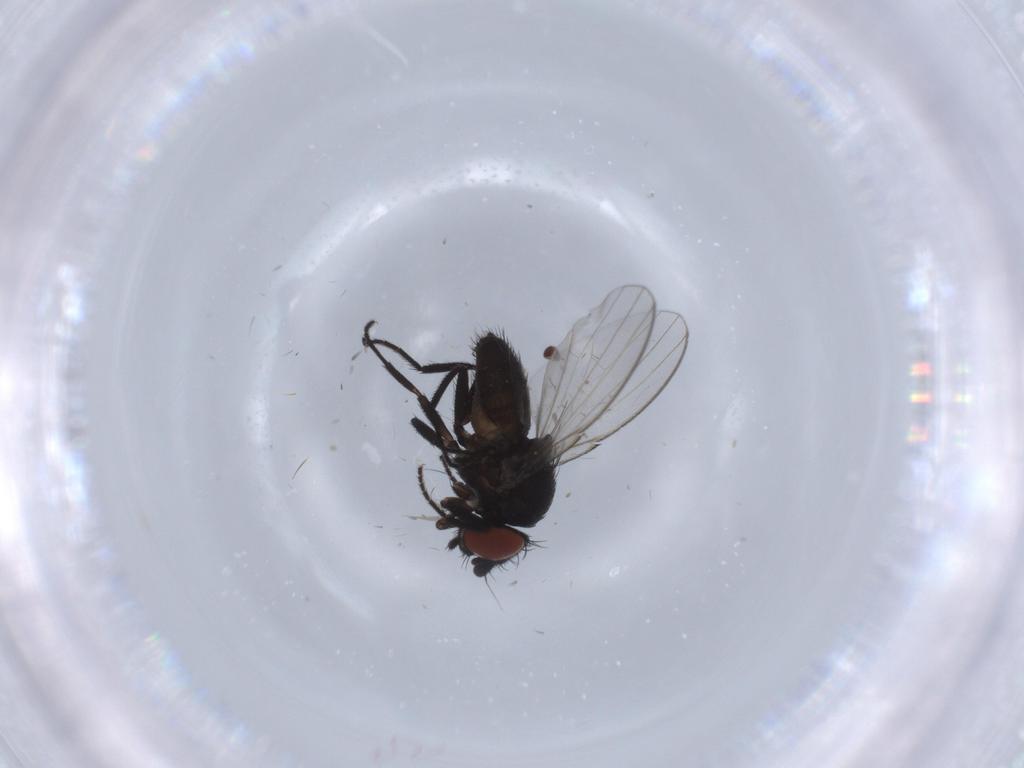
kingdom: Animalia
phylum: Arthropoda
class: Insecta
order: Diptera
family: Milichiidae
